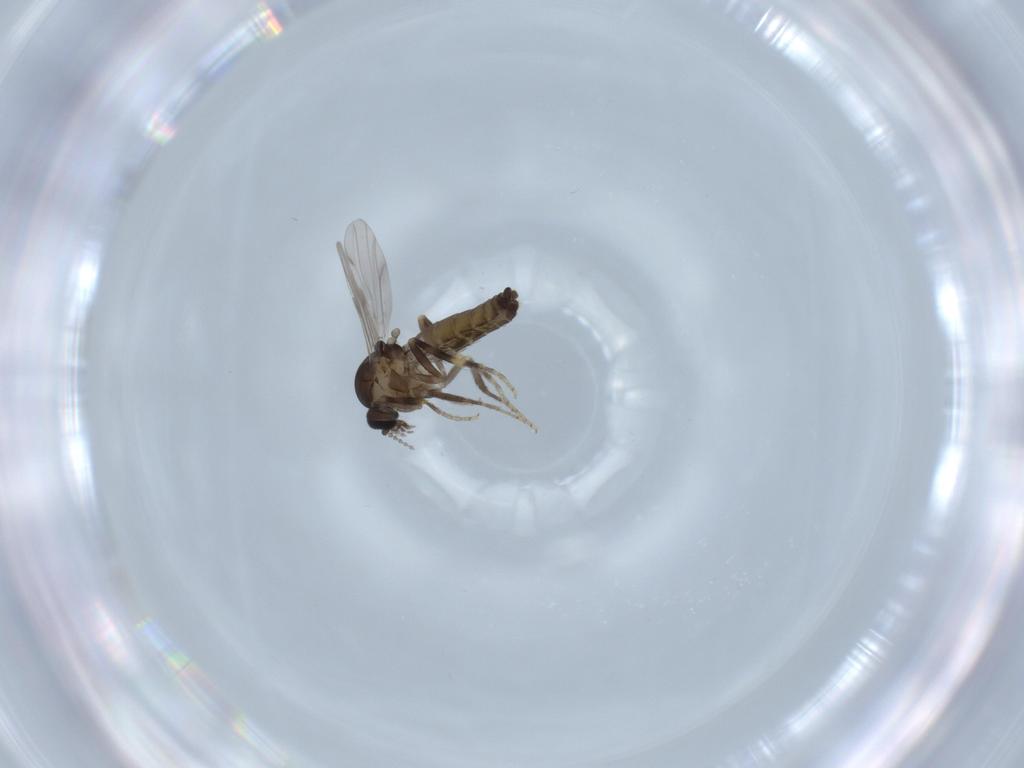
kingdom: Animalia
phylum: Arthropoda
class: Insecta
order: Diptera
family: Ceratopogonidae
